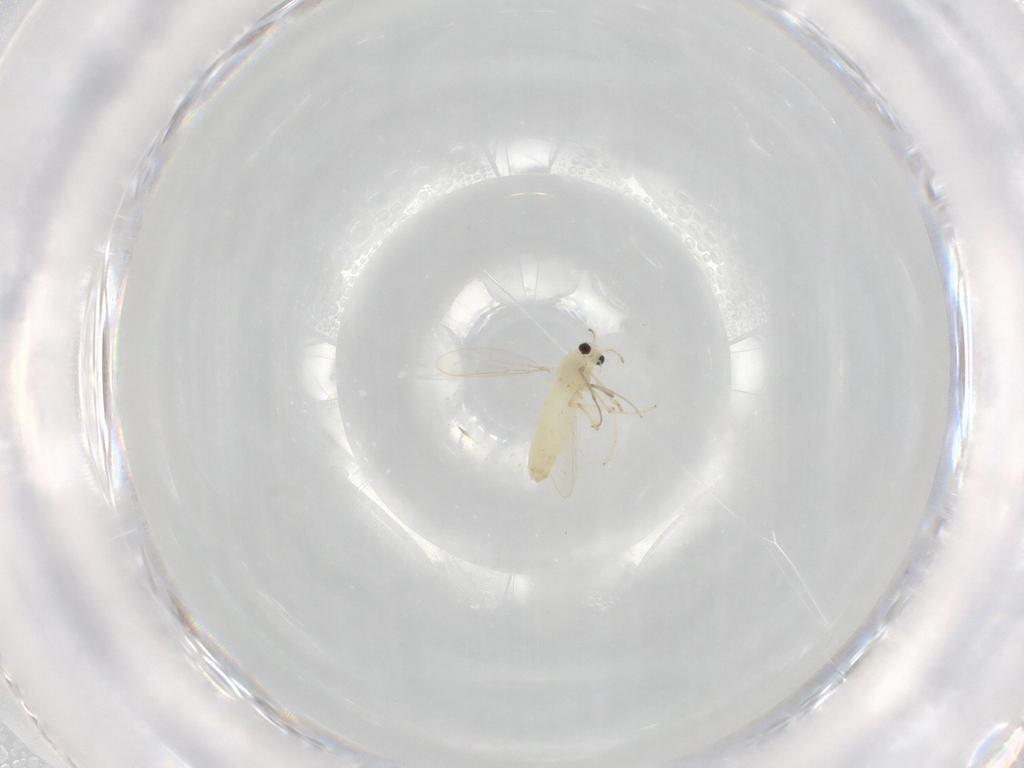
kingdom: Animalia
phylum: Arthropoda
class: Insecta
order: Diptera
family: Chironomidae
